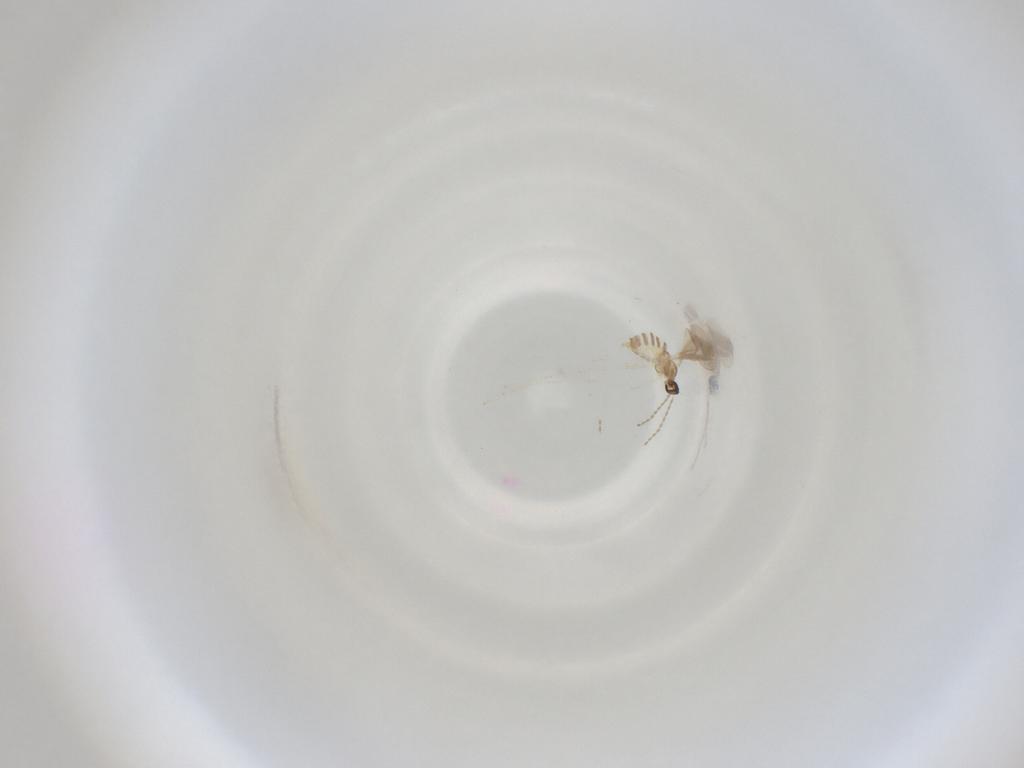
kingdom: Animalia
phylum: Arthropoda
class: Insecta
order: Diptera
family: Cecidomyiidae
